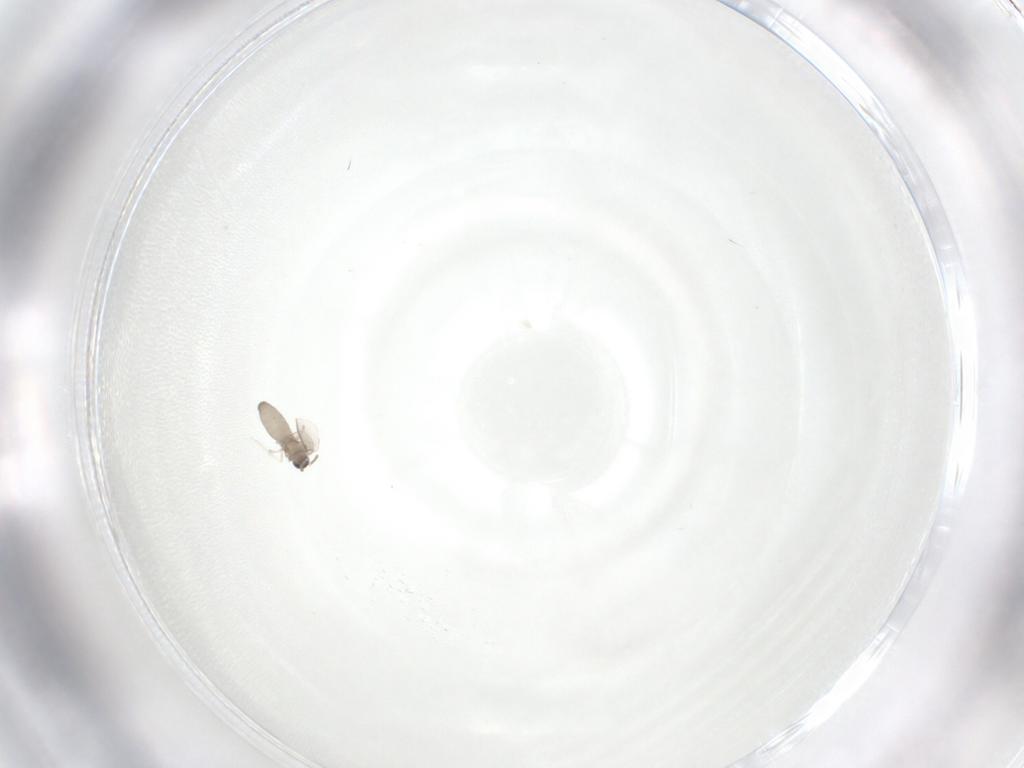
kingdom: Animalia
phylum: Arthropoda
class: Insecta
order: Diptera
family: Cecidomyiidae
